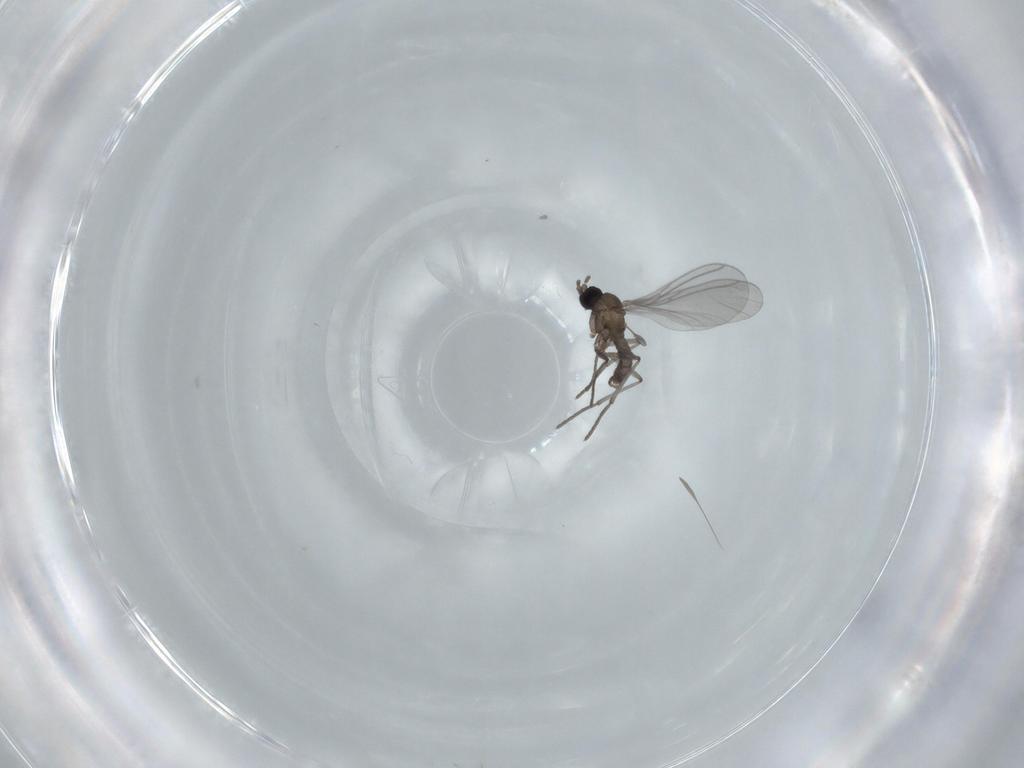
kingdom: Animalia
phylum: Arthropoda
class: Insecta
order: Diptera
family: Sciaridae
